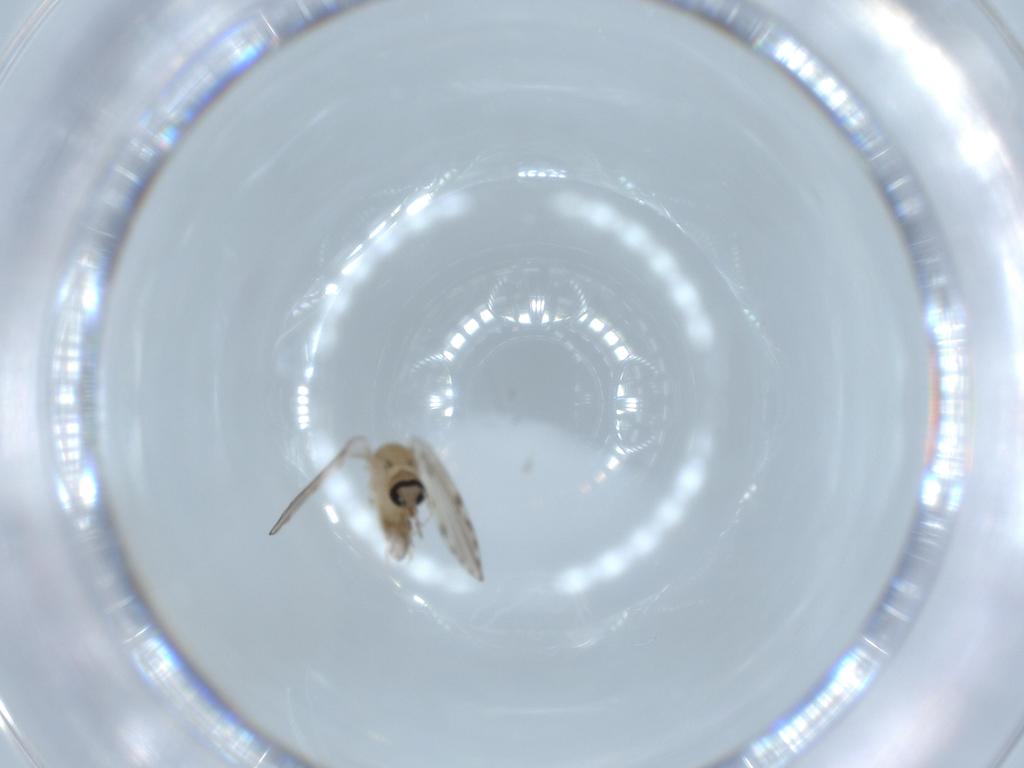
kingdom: Animalia
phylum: Arthropoda
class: Insecta
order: Diptera
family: Psychodidae
